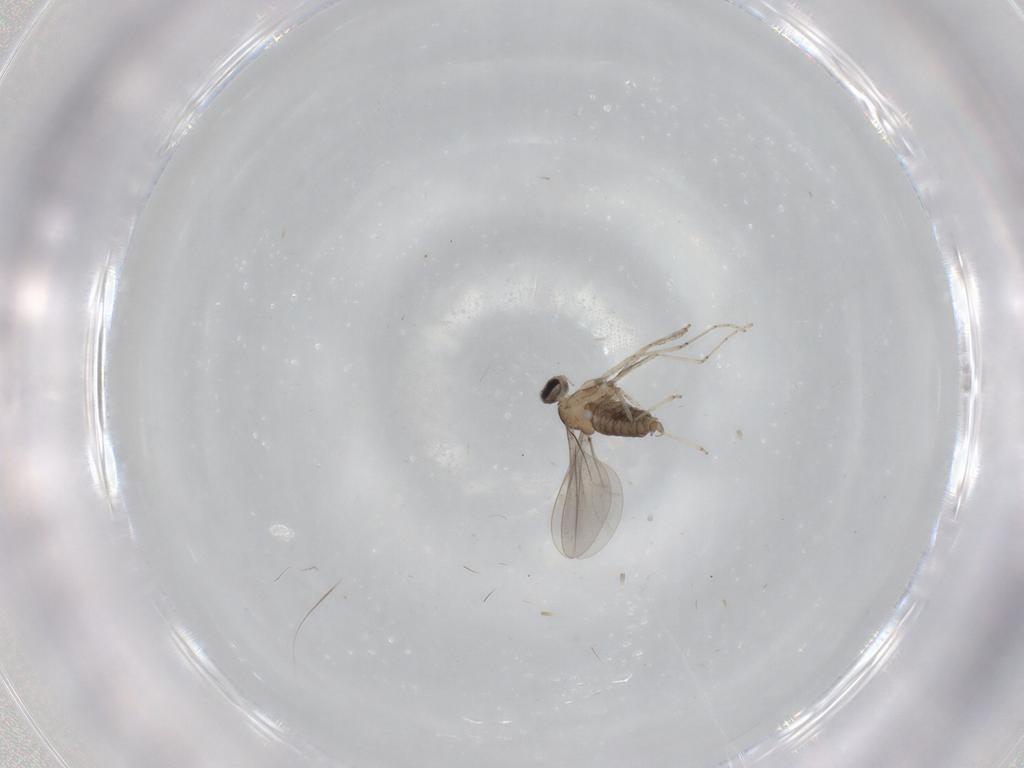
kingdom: Animalia
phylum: Arthropoda
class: Insecta
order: Diptera
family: Cecidomyiidae
